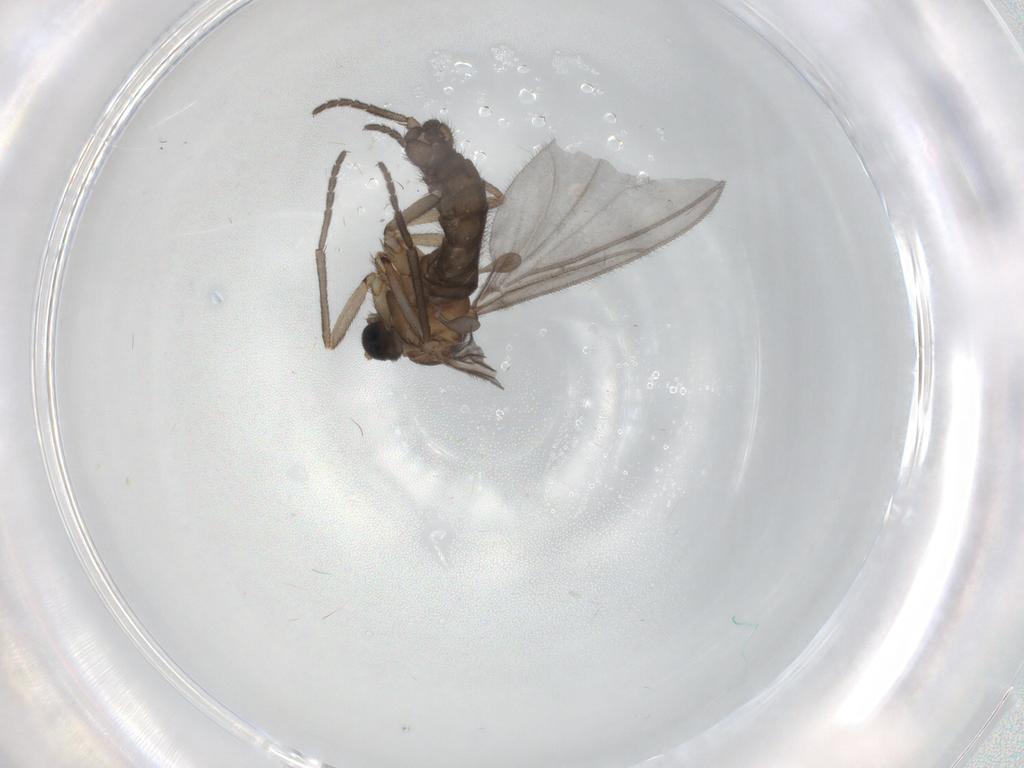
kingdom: Animalia
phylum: Arthropoda
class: Insecta
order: Diptera
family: Sciaridae
